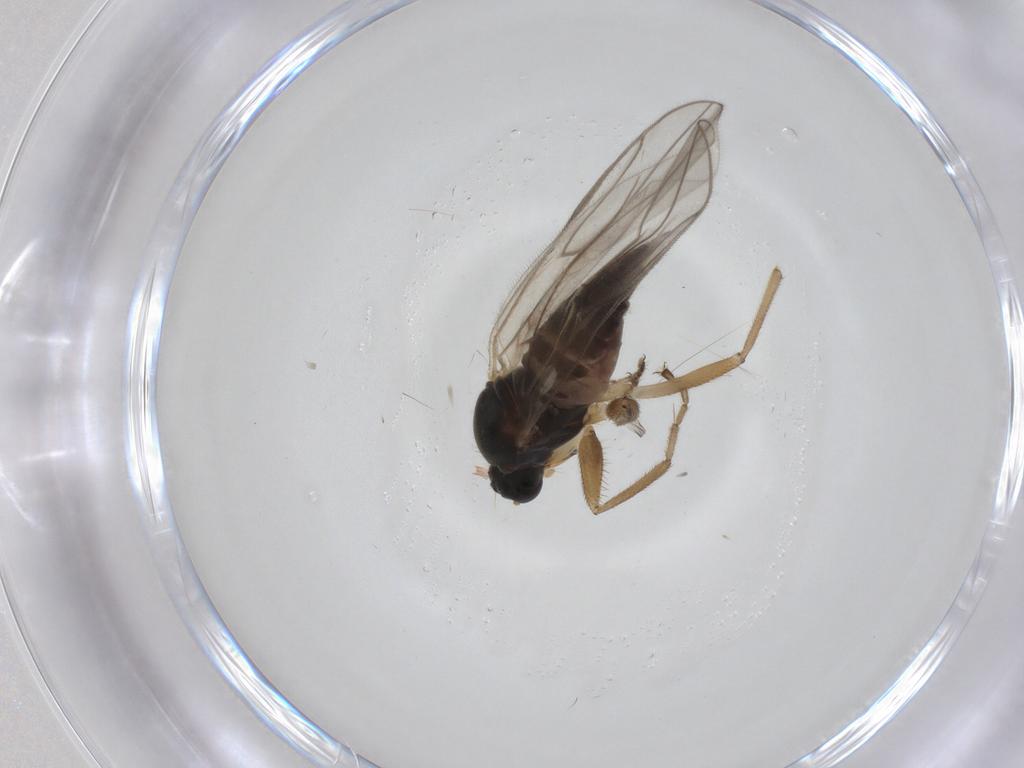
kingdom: Animalia
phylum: Arthropoda
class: Insecta
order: Diptera
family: Hybotidae
